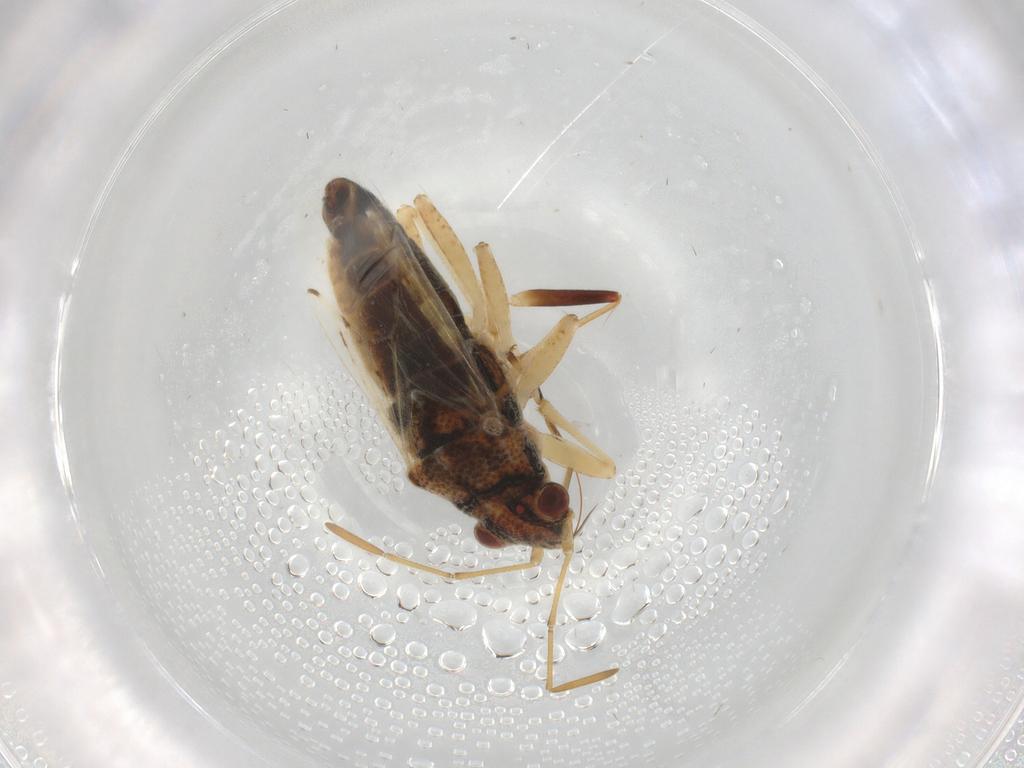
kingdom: Animalia
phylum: Arthropoda
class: Insecta
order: Hemiptera
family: Lygaeidae
